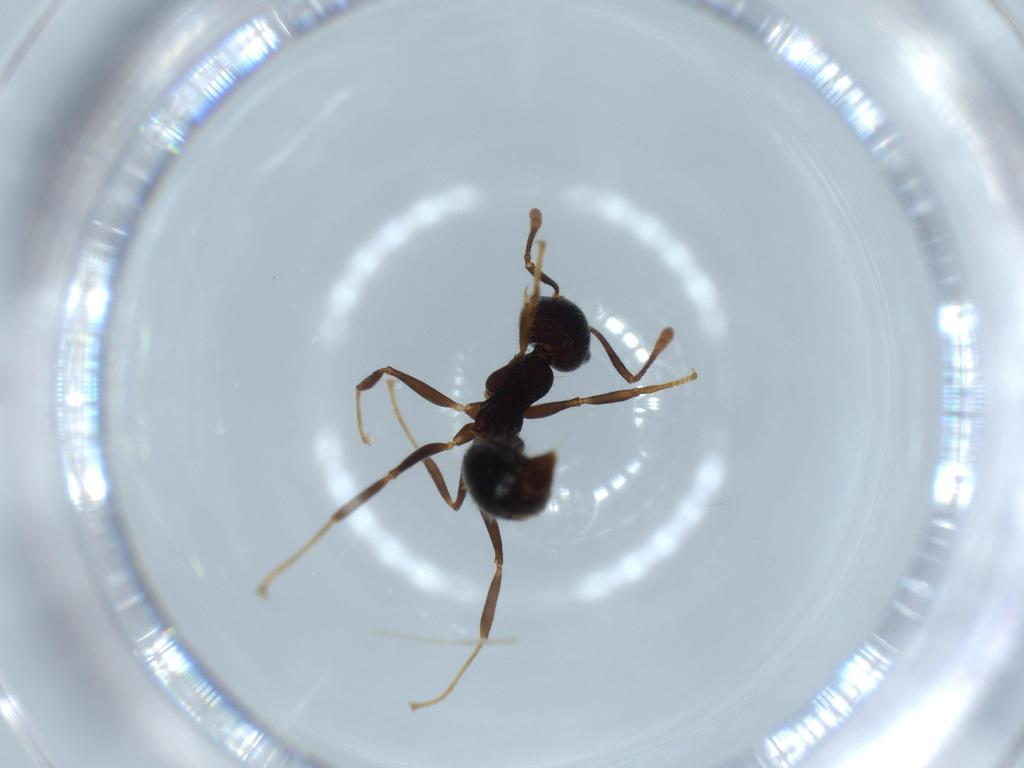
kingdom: Animalia
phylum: Arthropoda
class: Insecta
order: Hymenoptera
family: Formicidae
